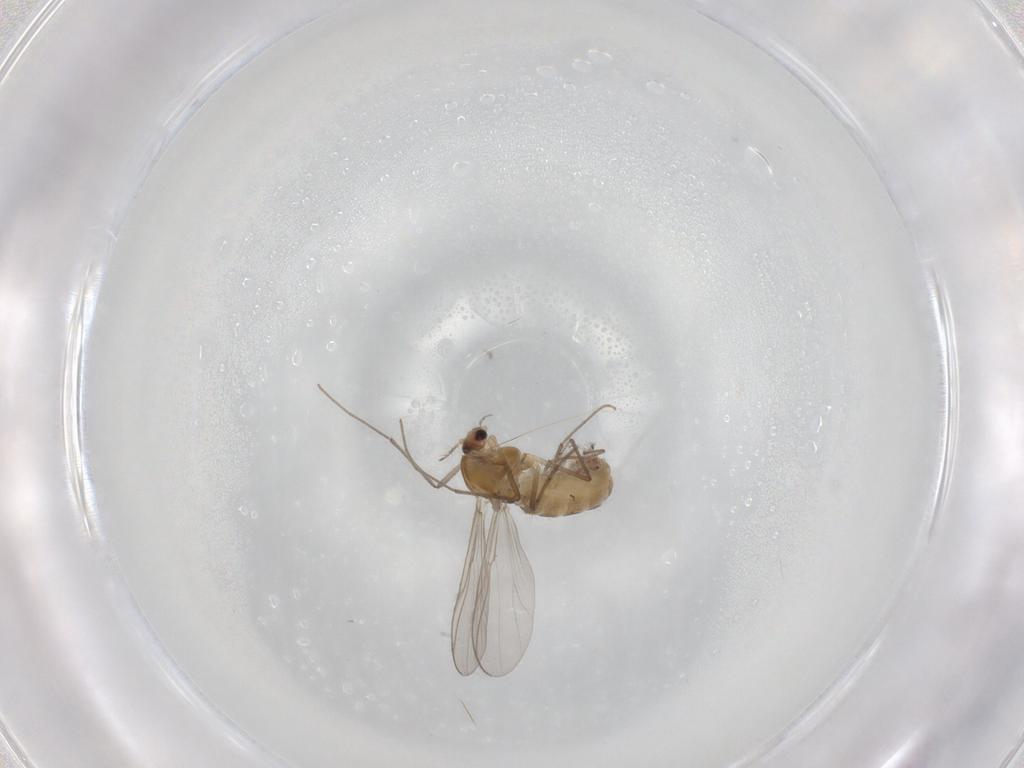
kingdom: Animalia
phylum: Arthropoda
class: Insecta
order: Diptera
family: Chironomidae
